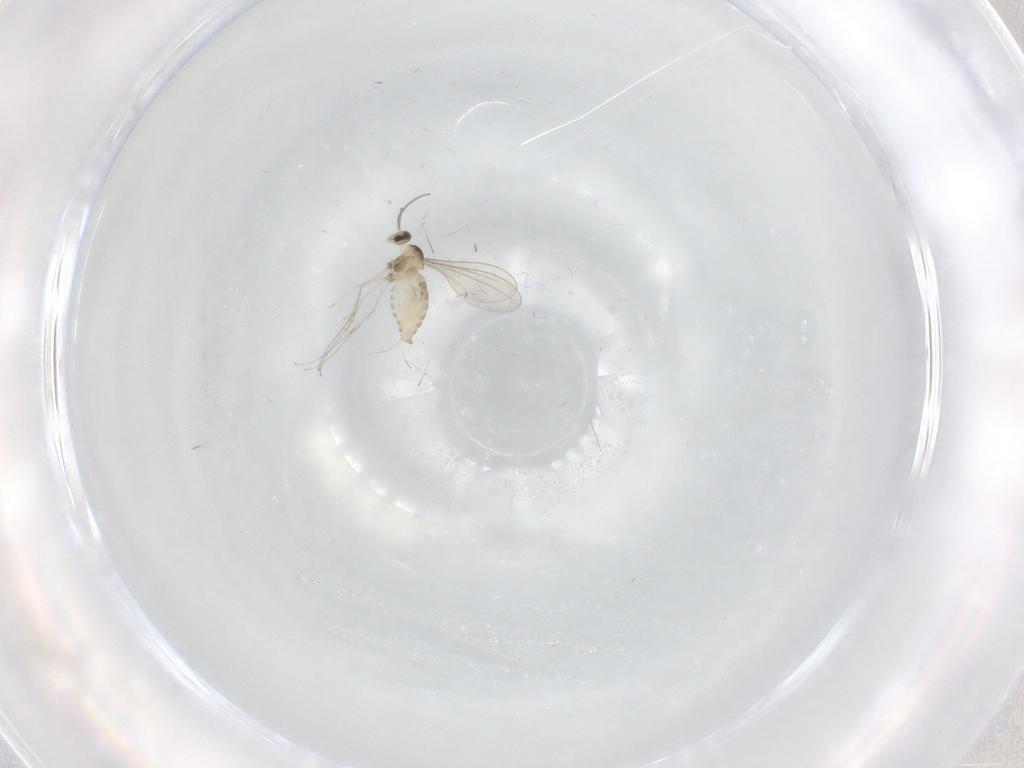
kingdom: Animalia
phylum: Arthropoda
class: Insecta
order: Diptera
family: Cecidomyiidae
